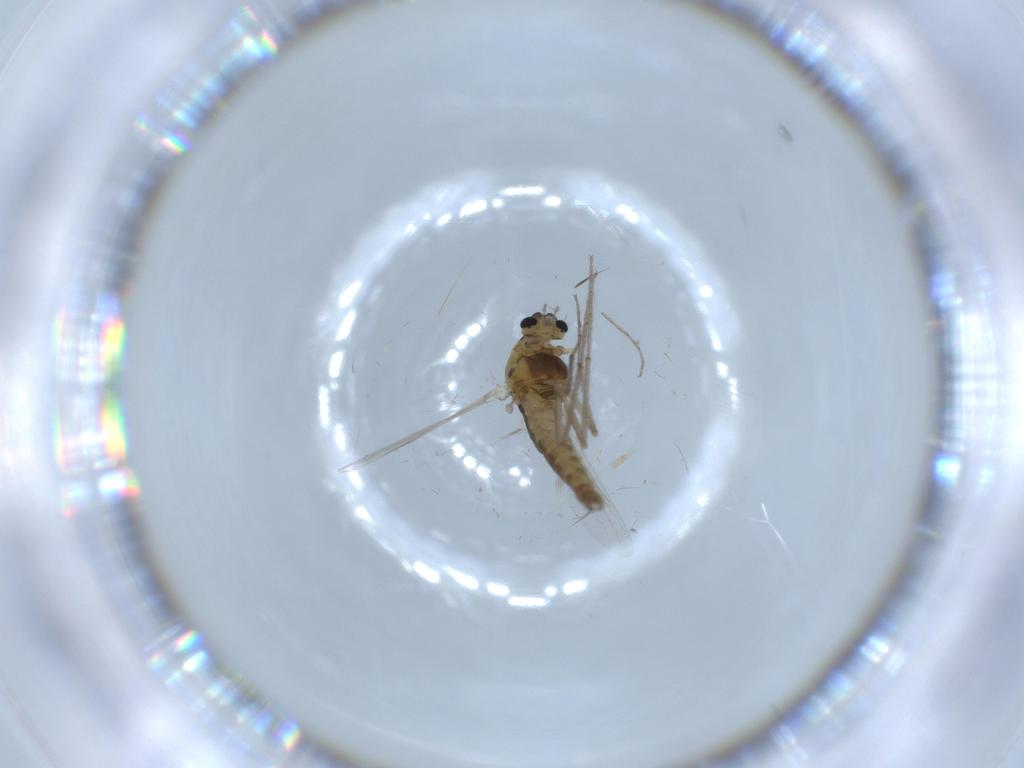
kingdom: Animalia
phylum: Arthropoda
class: Insecta
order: Diptera
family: Chironomidae
